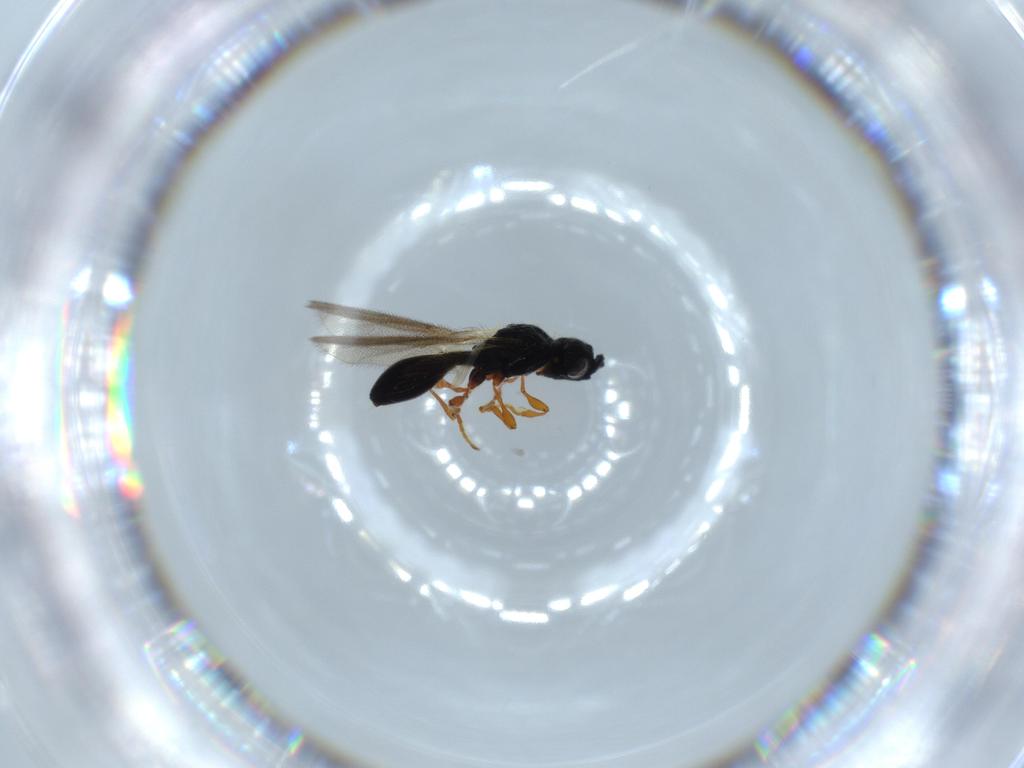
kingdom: Animalia
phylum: Arthropoda
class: Insecta
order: Hymenoptera
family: Diapriidae
